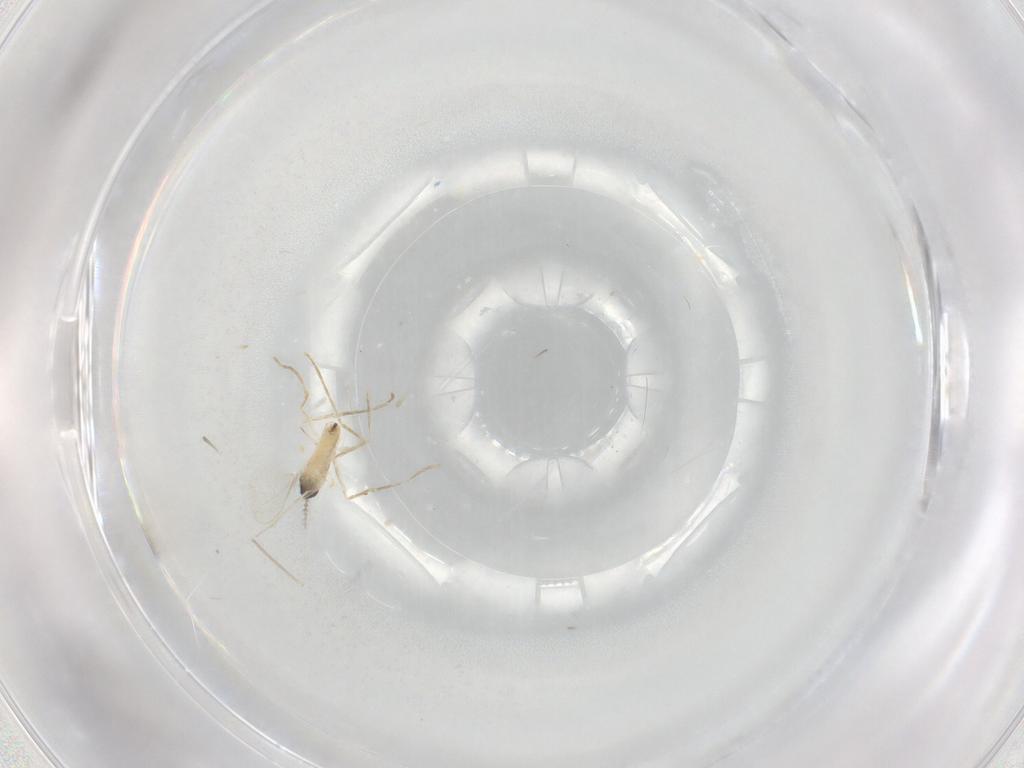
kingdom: Animalia
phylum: Arthropoda
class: Insecta
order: Diptera
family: Cecidomyiidae
